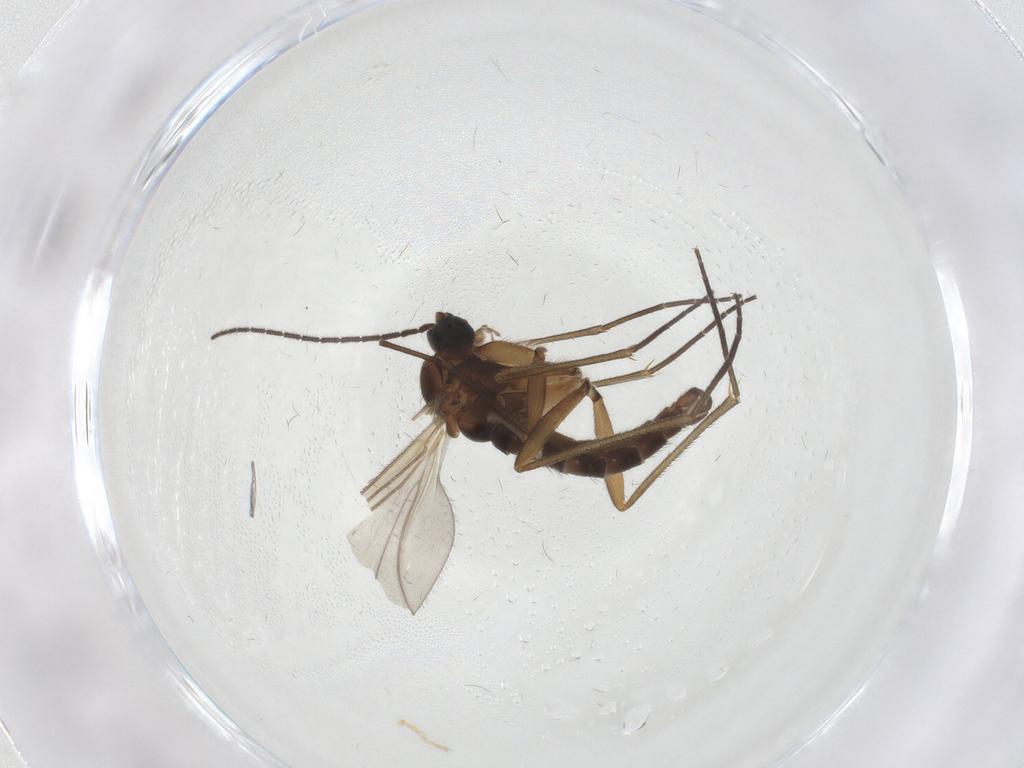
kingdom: Animalia
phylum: Arthropoda
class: Insecta
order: Diptera
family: Sciaridae
